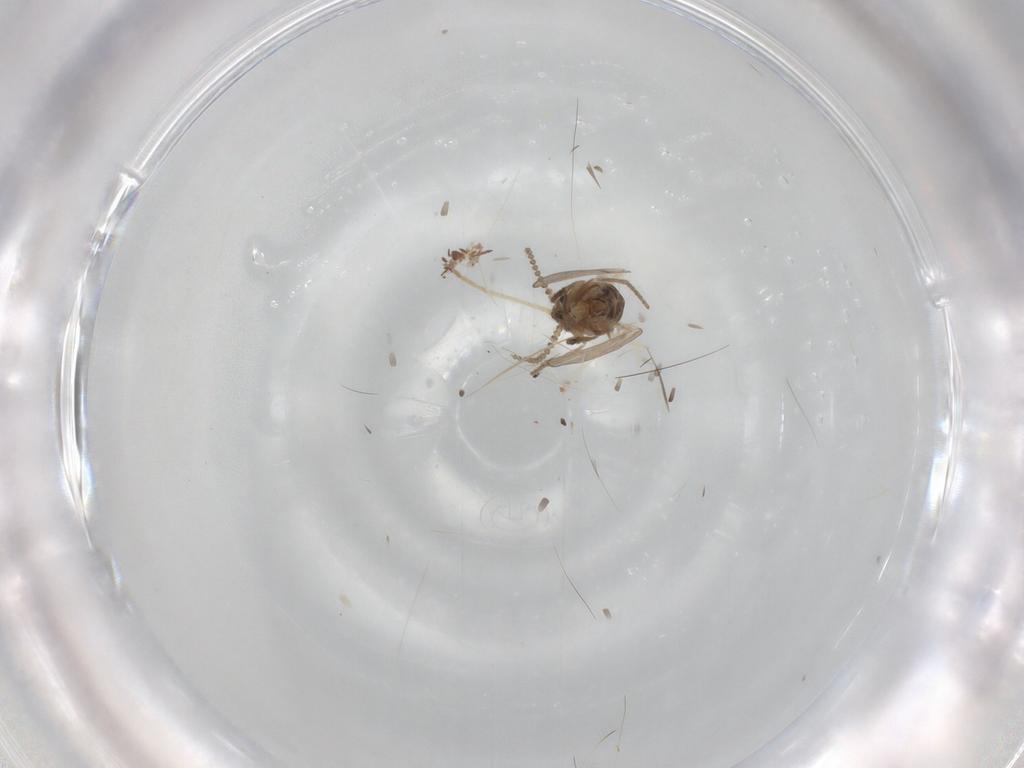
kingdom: Animalia
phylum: Arthropoda
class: Insecta
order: Diptera
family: Psychodidae
